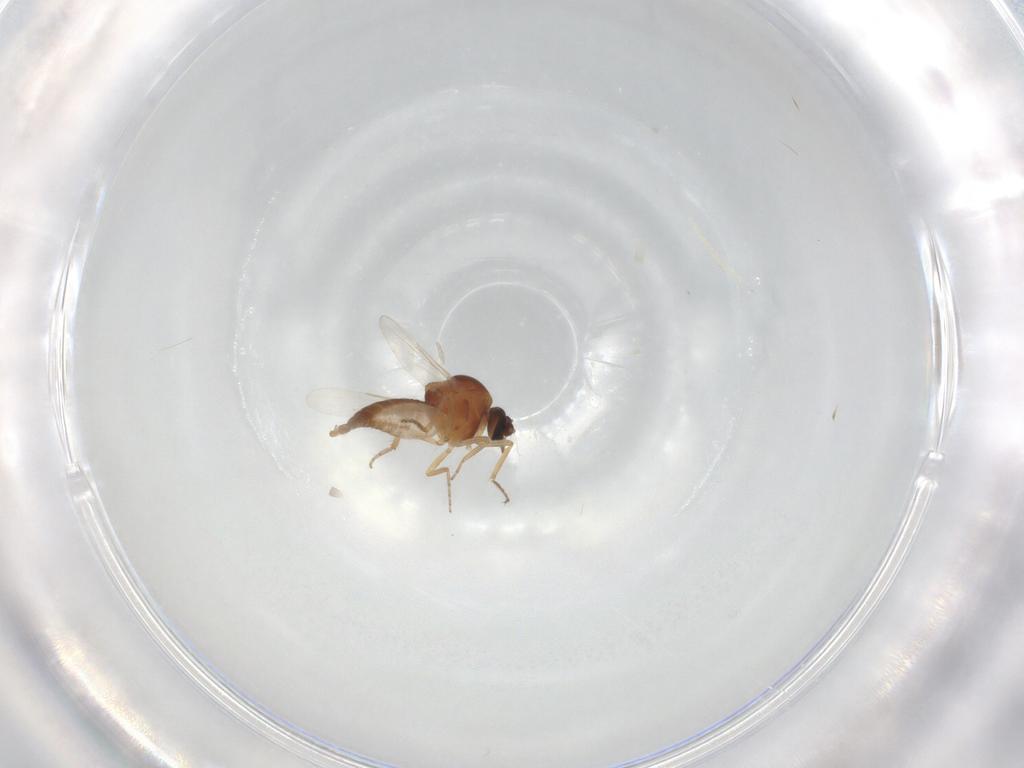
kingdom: Animalia
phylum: Arthropoda
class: Insecta
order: Diptera
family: Ceratopogonidae
